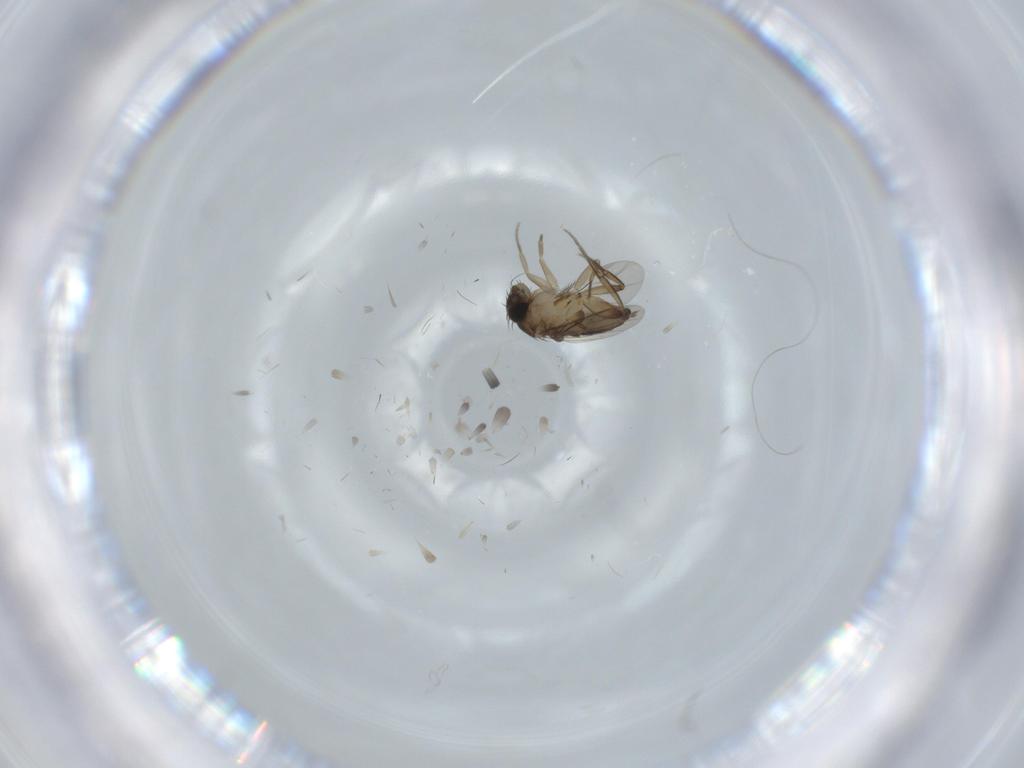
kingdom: Animalia
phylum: Arthropoda
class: Insecta
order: Diptera
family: Phoridae
